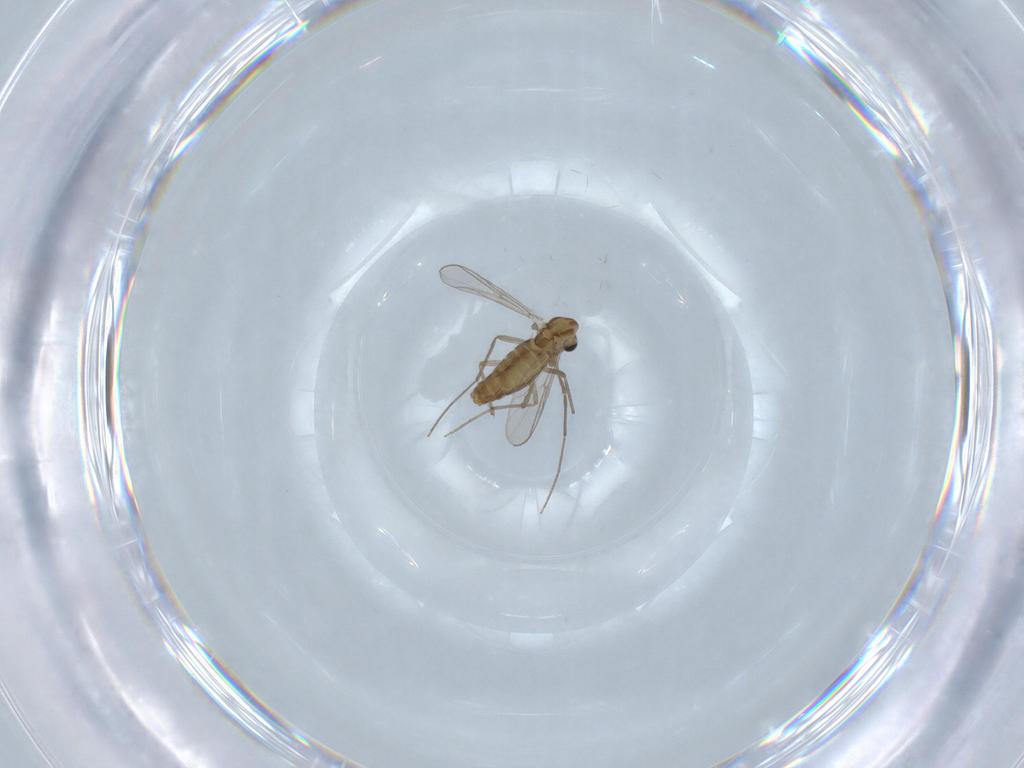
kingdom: Animalia
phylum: Arthropoda
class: Insecta
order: Diptera
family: Chironomidae
